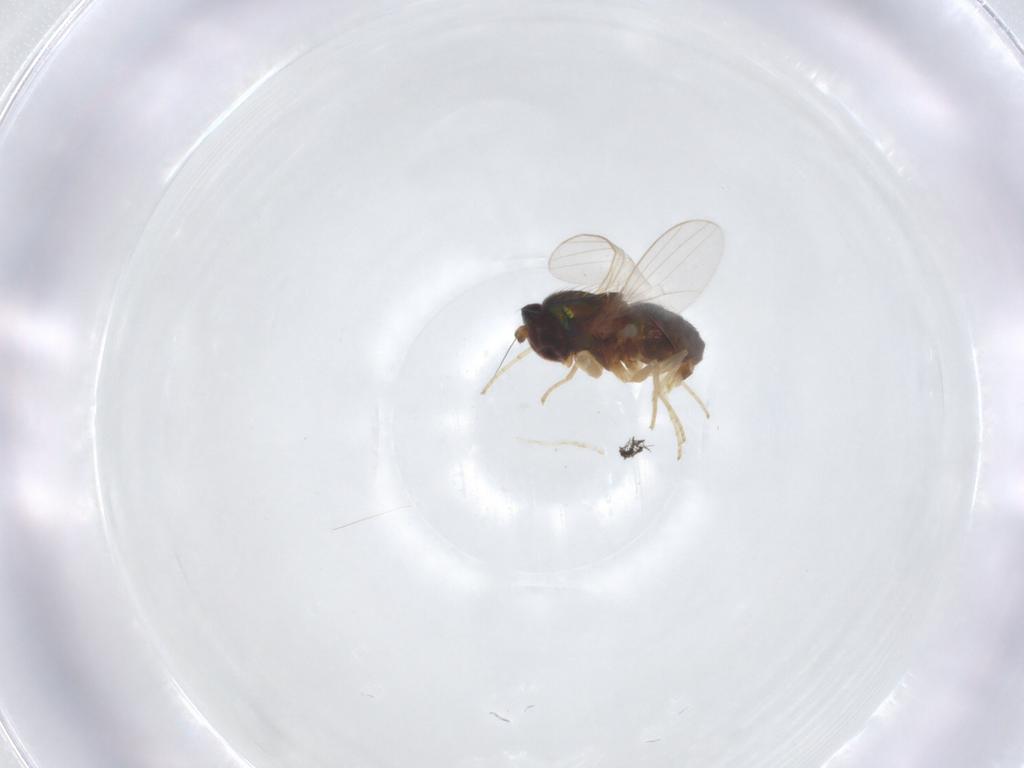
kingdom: Animalia
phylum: Arthropoda
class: Insecta
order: Diptera
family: Dolichopodidae
